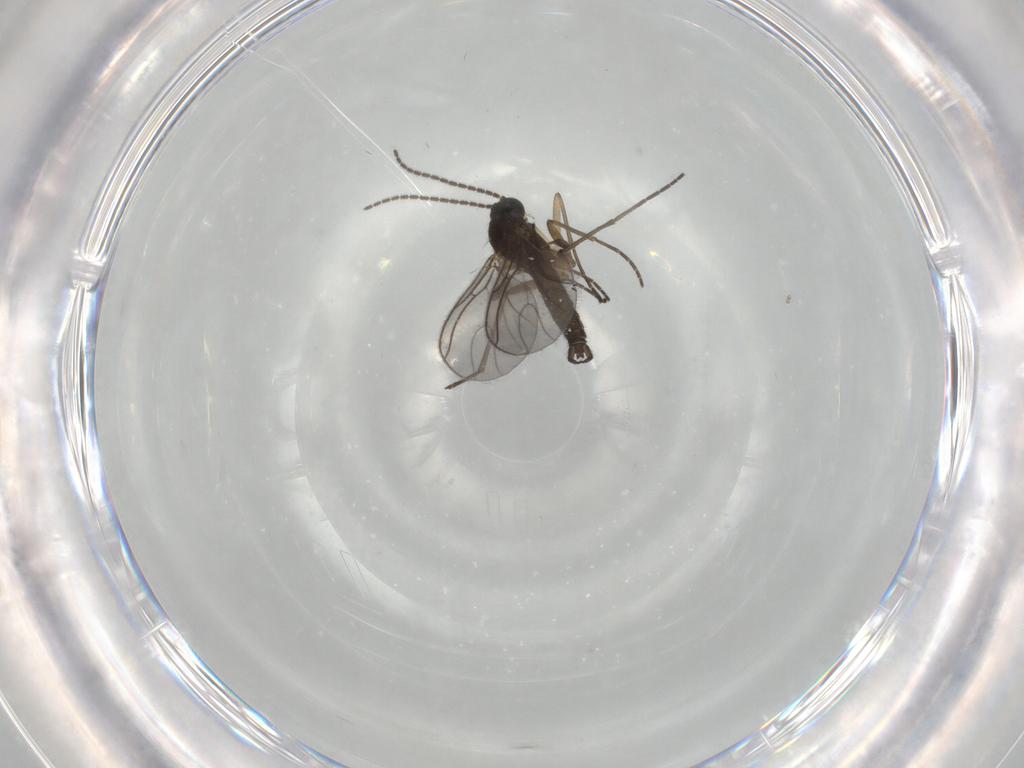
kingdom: Animalia
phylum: Arthropoda
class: Insecta
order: Diptera
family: Sciaridae
